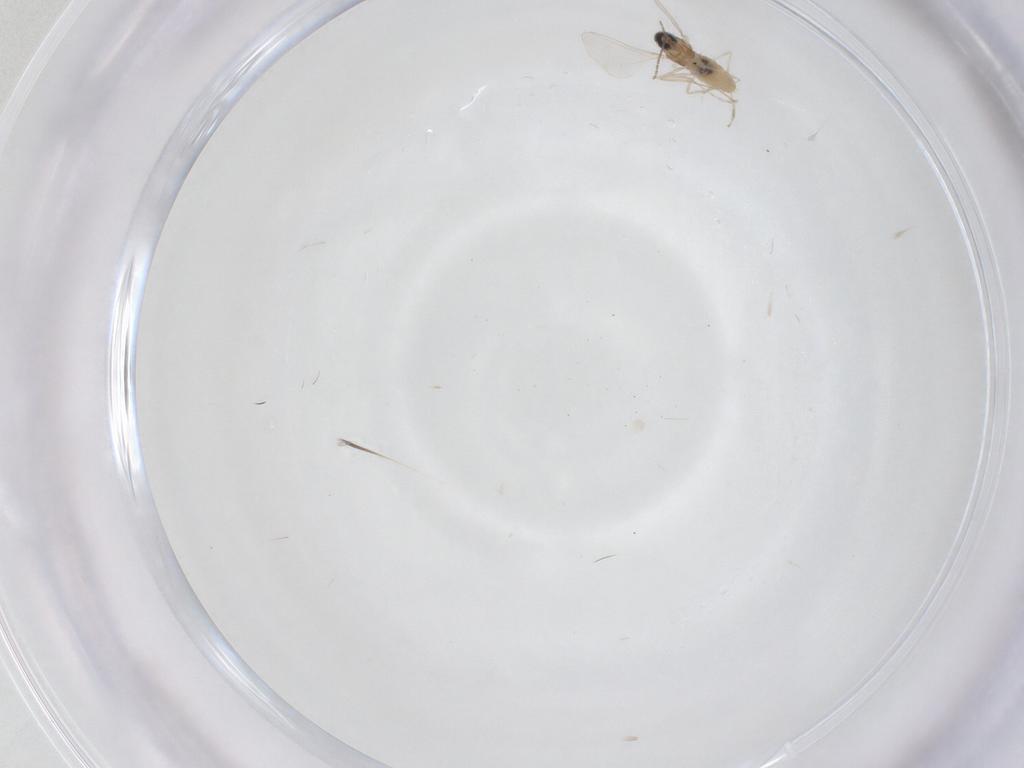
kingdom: Animalia
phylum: Arthropoda
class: Insecta
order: Diptera
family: Cecidomyiidae
